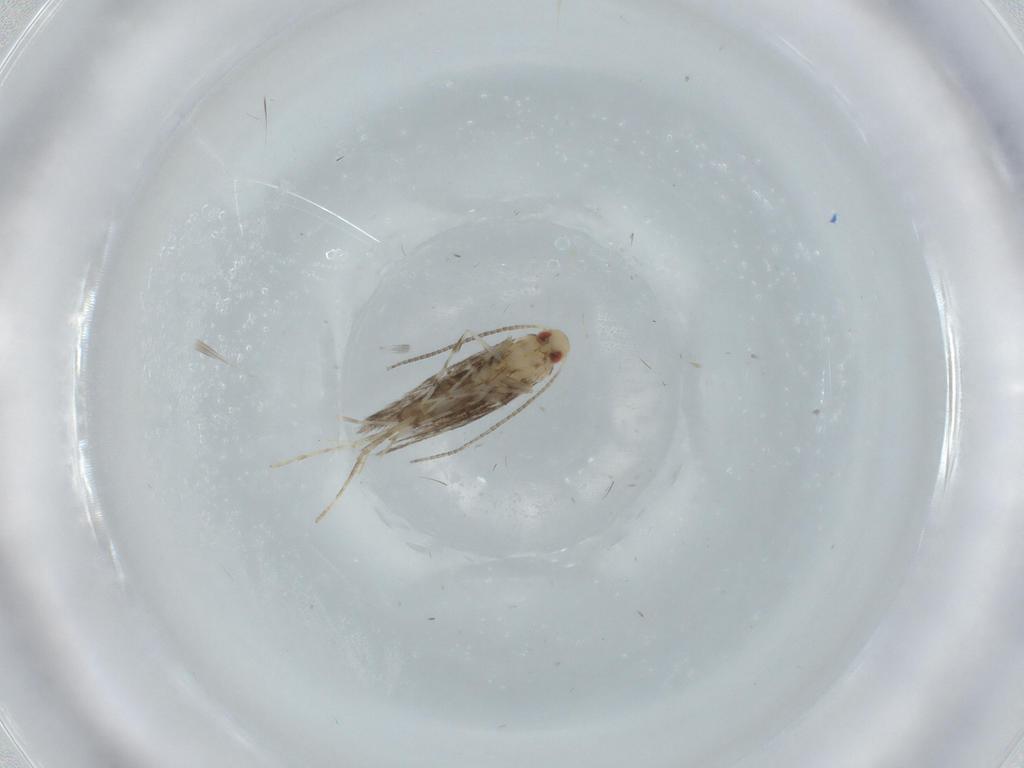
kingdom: Animalia
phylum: Arthropoda
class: Insecta
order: Lepidoptera
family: Gracillariidae
